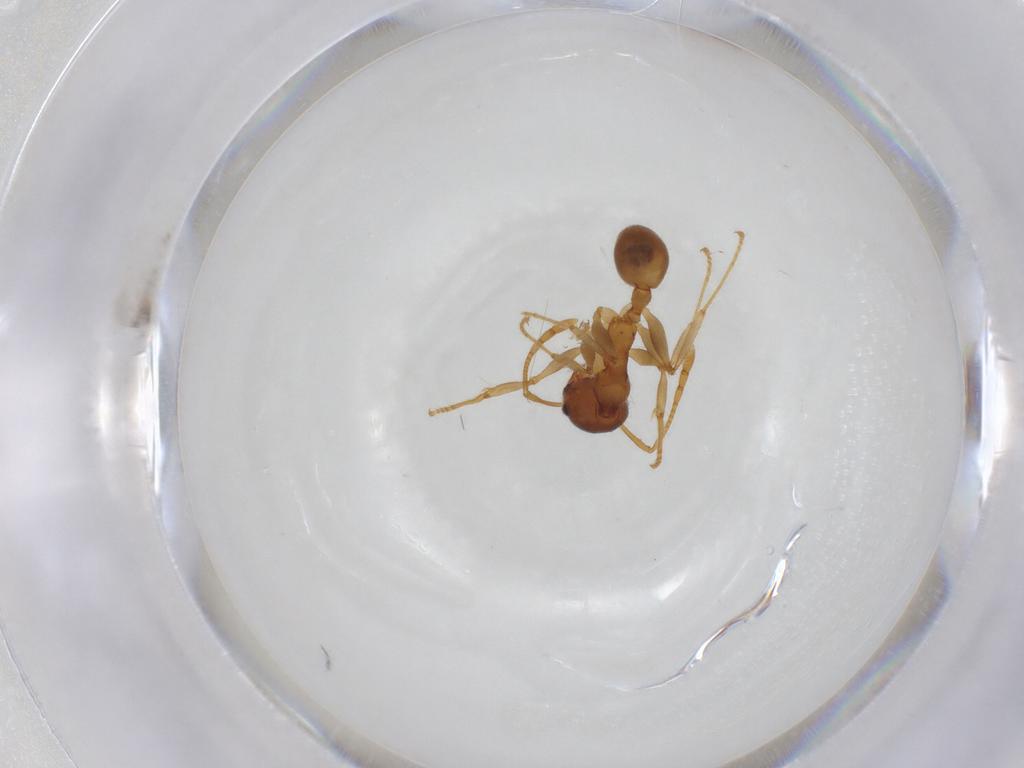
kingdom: Animalia
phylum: Arthropoda
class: Insecta
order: Hymenoptera
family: Formicidae
